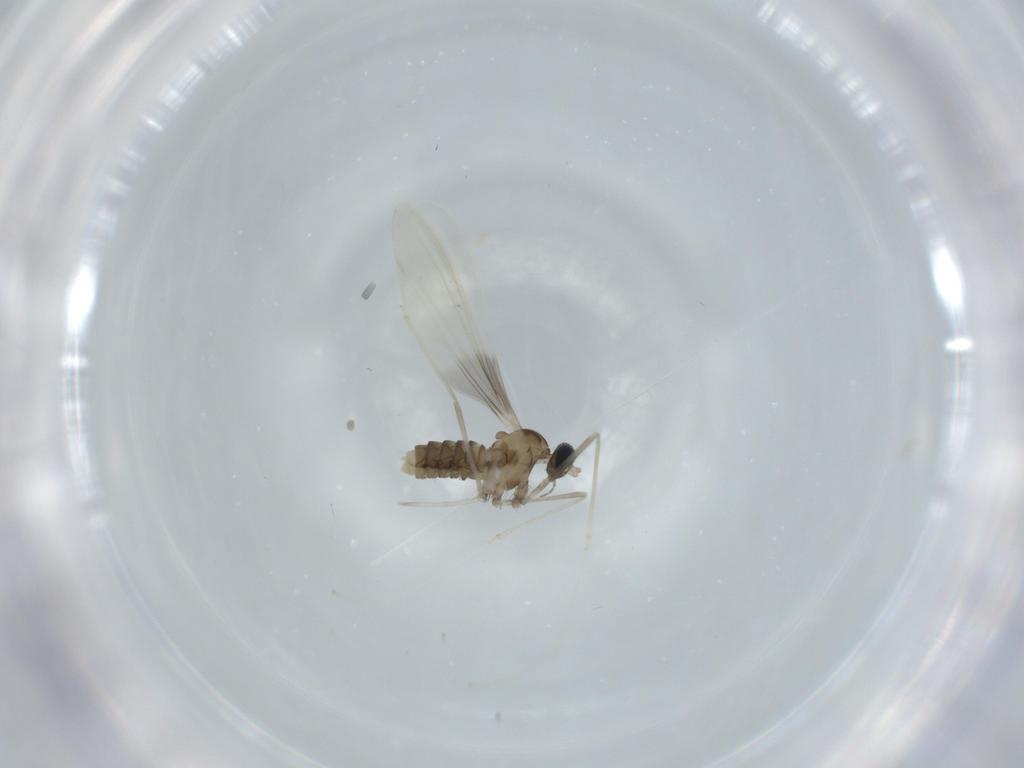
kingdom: Animalia
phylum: Arthropoda
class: Insecta
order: Diptera
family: Cecidomyiidae
